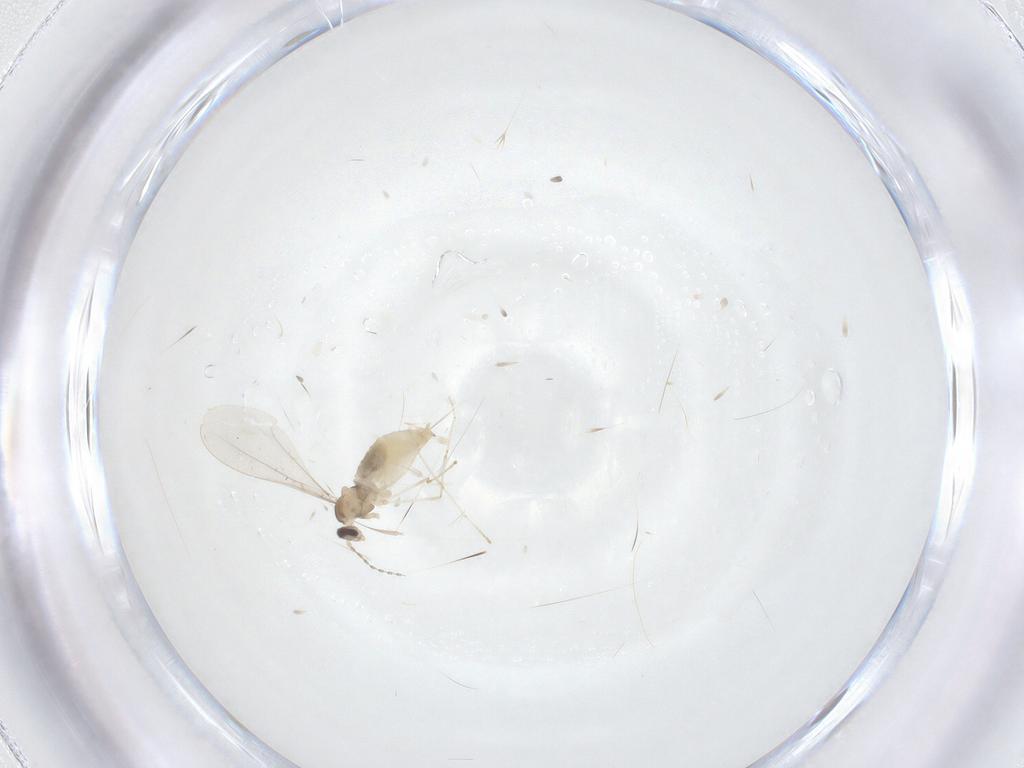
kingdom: Animalia
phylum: Arthropoda
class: Insecta
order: Diptera
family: Cecidomyiidae
